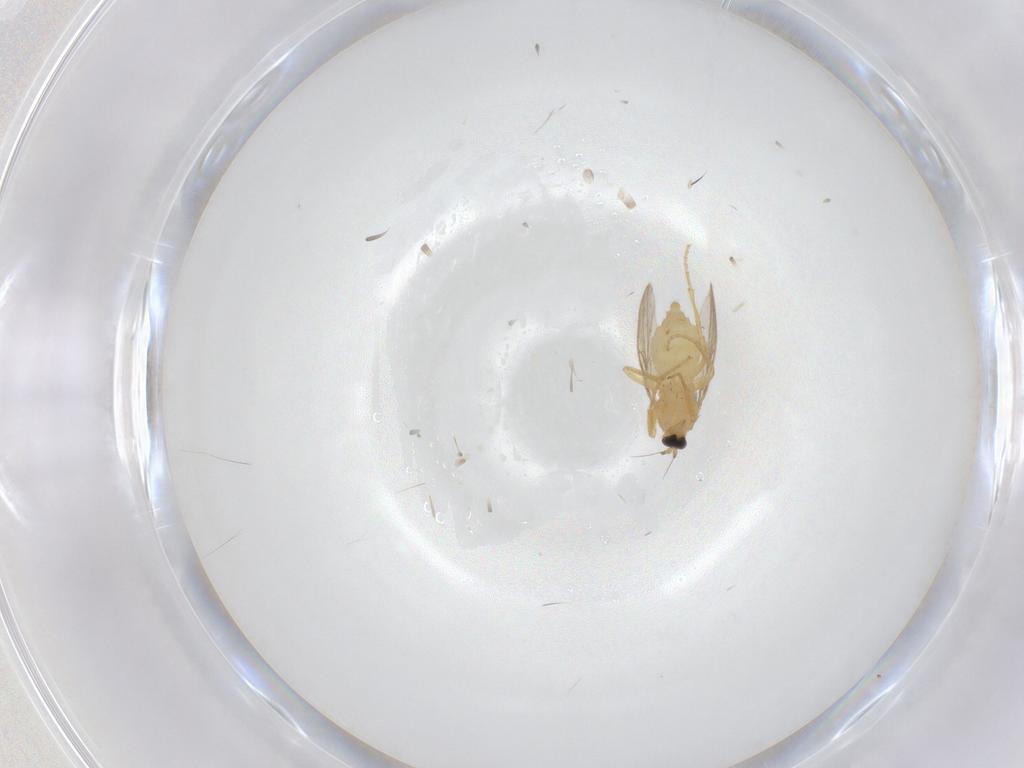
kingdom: Animalia
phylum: Arthropoda
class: Insecta
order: Diptera
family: Hybotidae
